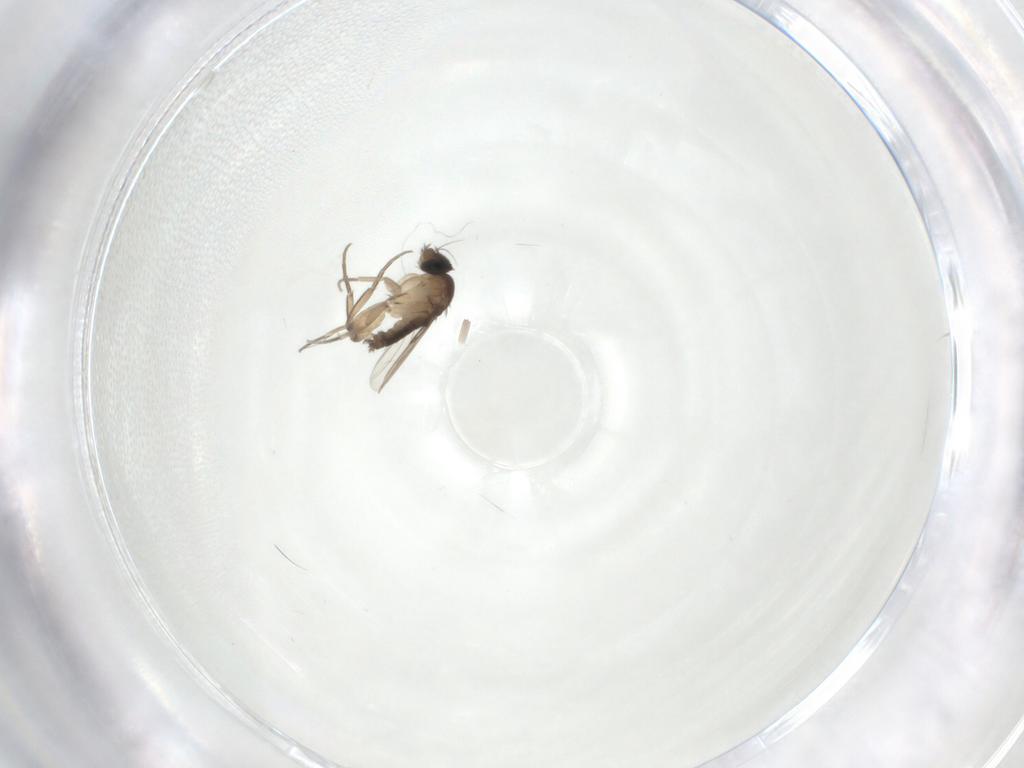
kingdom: Animalia
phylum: Arthropoda
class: Insecta
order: Diptera
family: Phoridae
